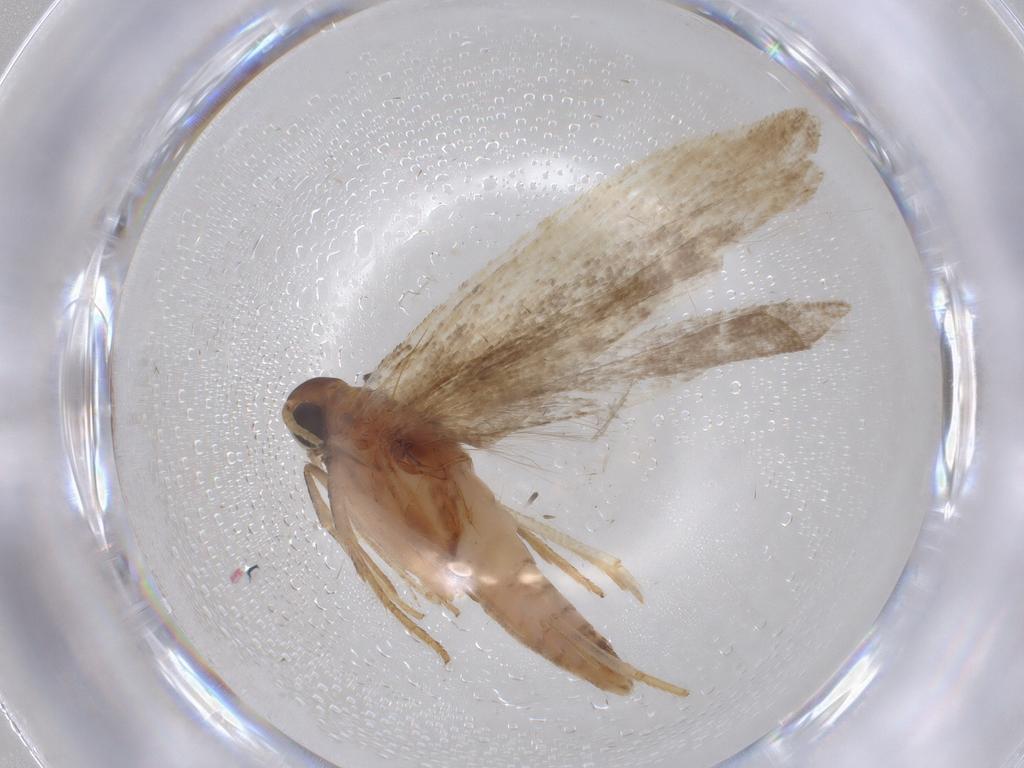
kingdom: Animalia
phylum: Arthropoda
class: Insecta
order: Lepidoptera
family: Gelechiidae
